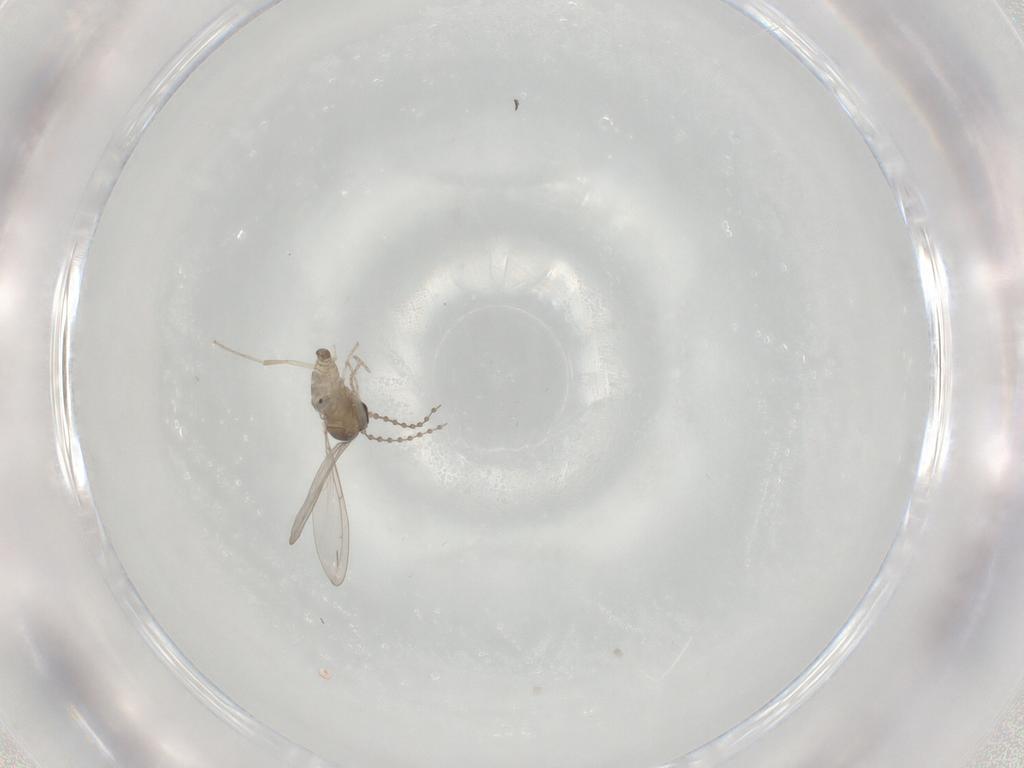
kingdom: Animalia
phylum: Arthropoda
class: Insecta
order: Diptera
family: Cecidomyiidae
